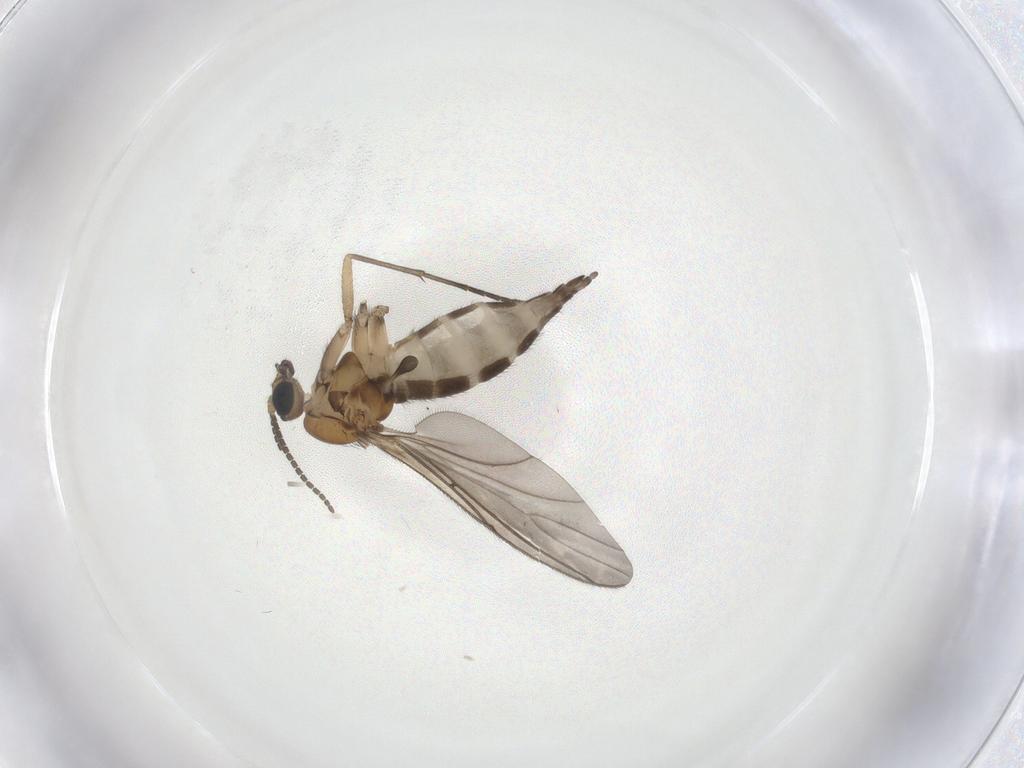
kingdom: Animalia
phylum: Arthropoda
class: Insecta
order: Diptera
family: Sciaridae
